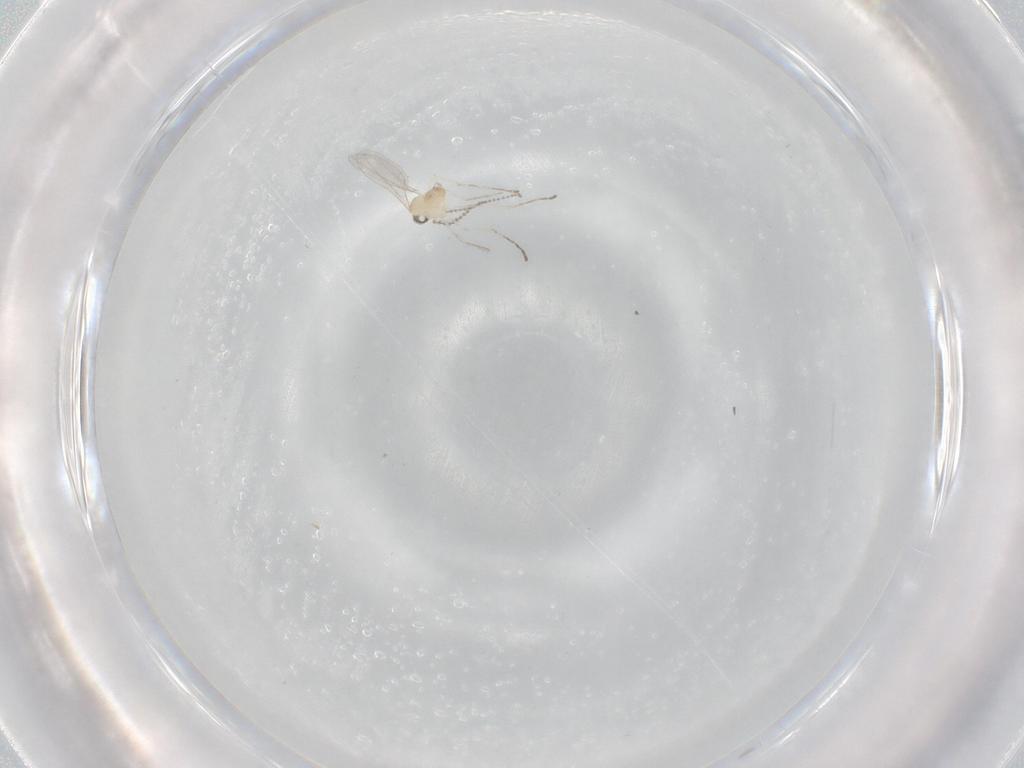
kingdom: Animalia
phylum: Arthropoda
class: Insecta
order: Diptera
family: Cecidomyiidae
